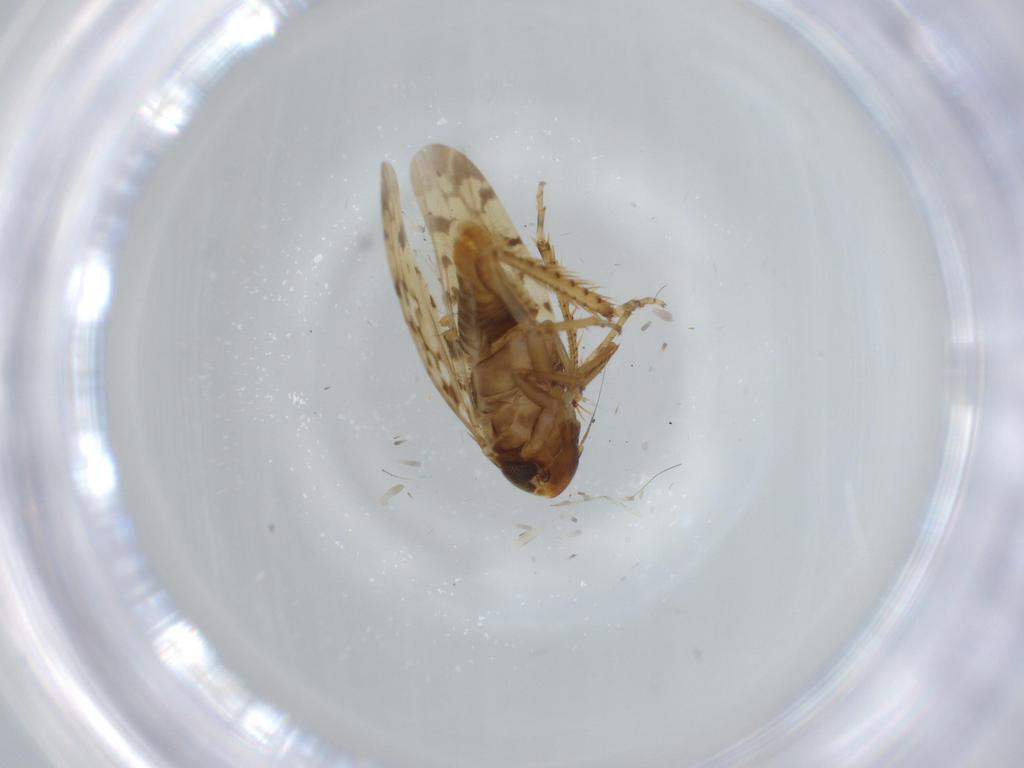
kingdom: Animalia
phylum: Arthropoda
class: Insecta
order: Hemiptera
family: Cicadellidae
